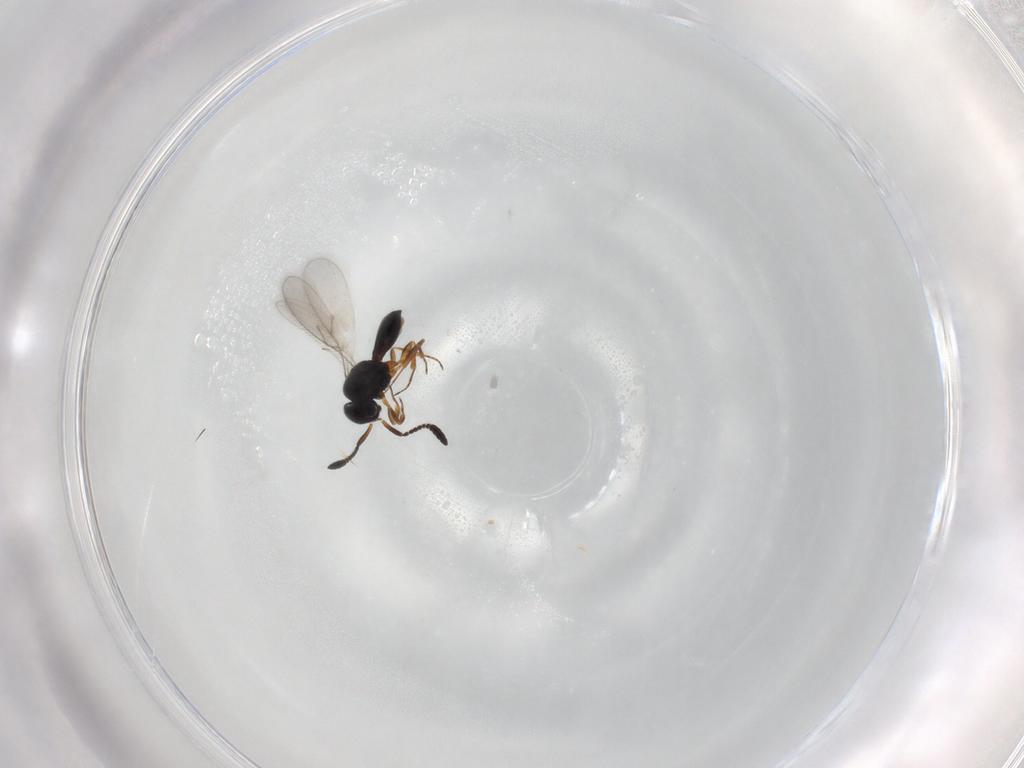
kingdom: Animalia
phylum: Arthropoda
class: Insecta
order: Hymenoptera
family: Scelionidae
